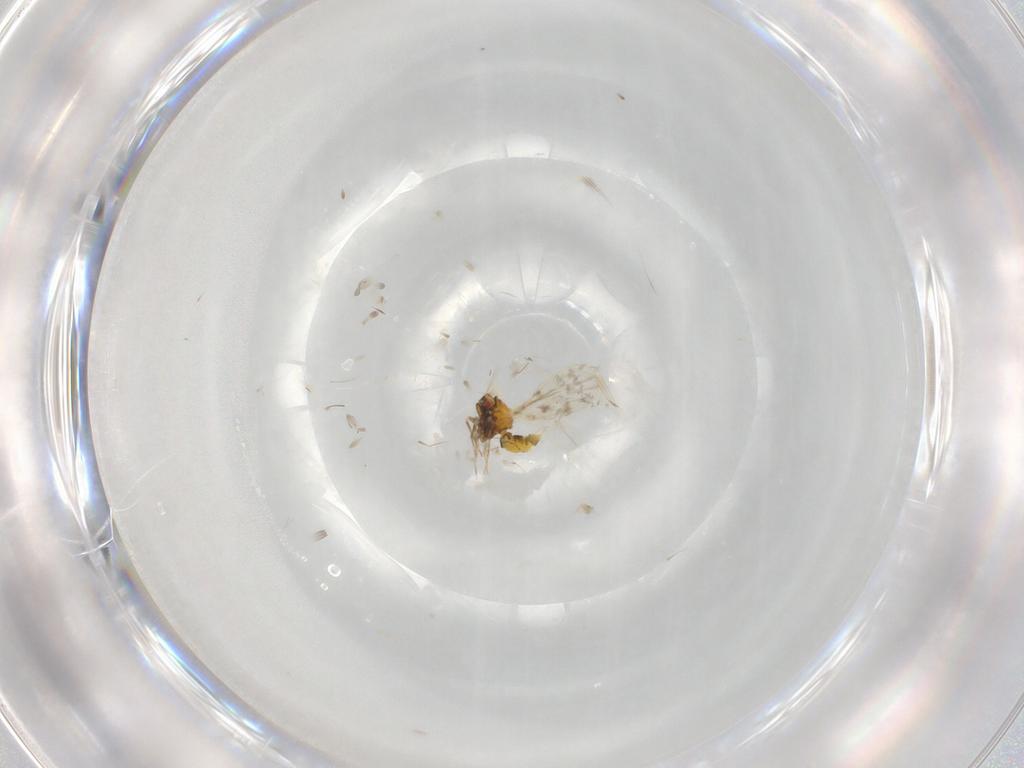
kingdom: Animalia
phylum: Arthropoda
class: Insecta
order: Hemiptera
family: Aleyrodidae
